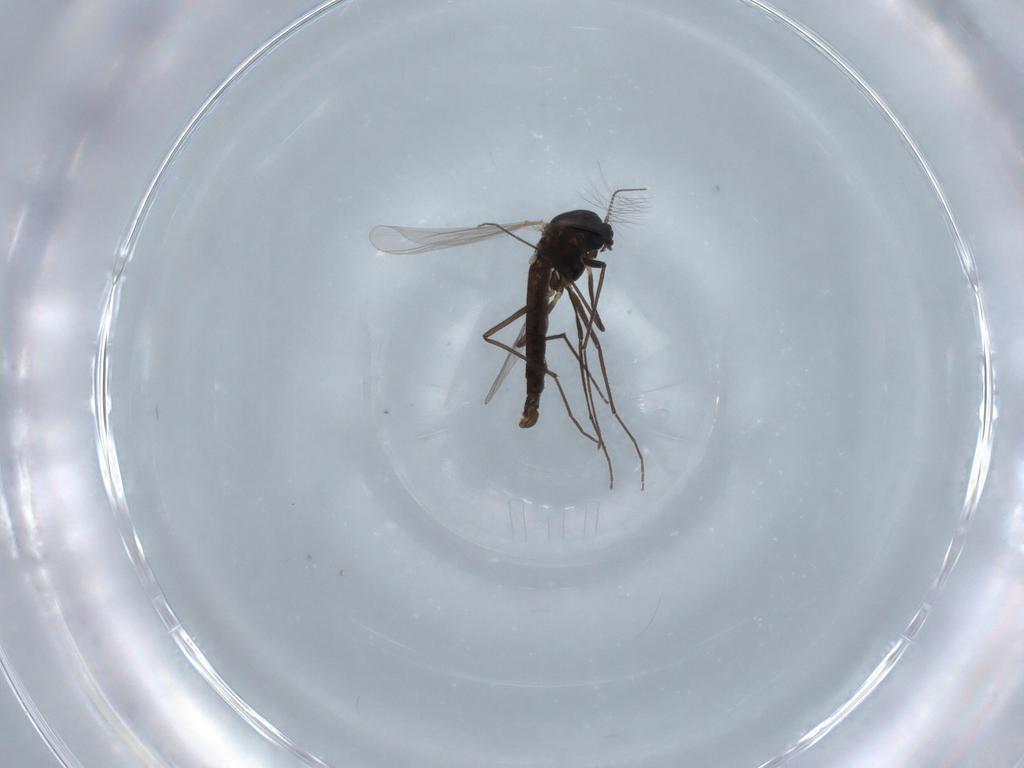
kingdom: Animalia
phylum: Arthropoda
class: Insecta
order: Diptera
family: Chironomidae
